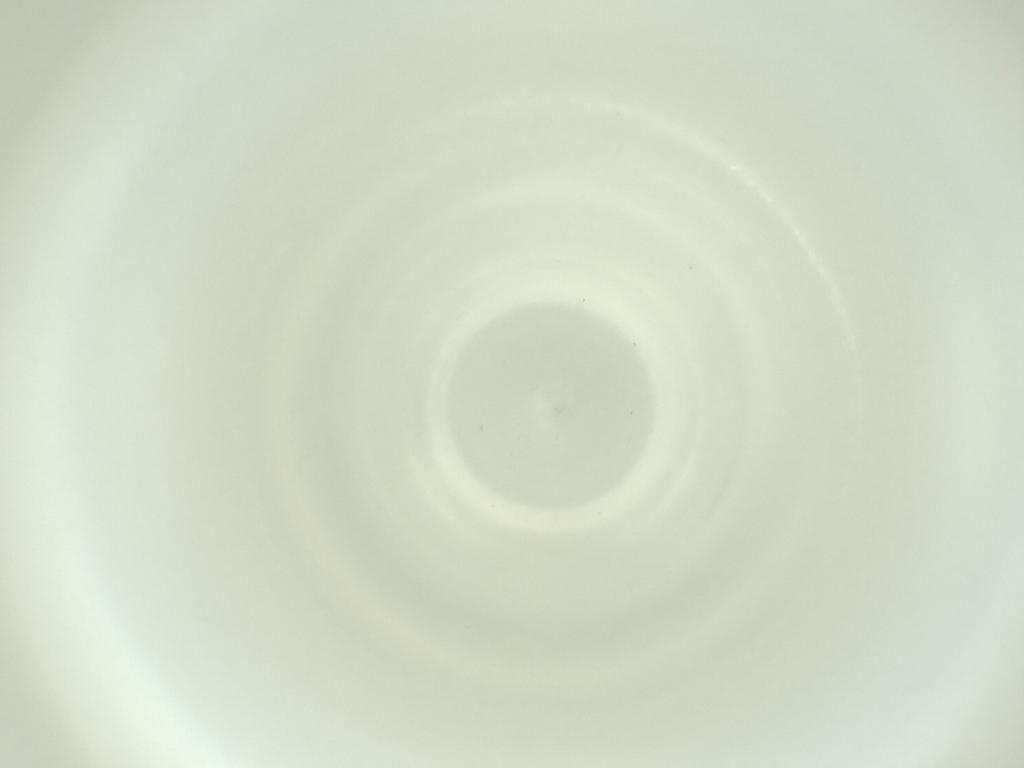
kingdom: Animalia
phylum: Arthropoda
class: Insecta
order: Diptera
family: Cecidomyiidae
